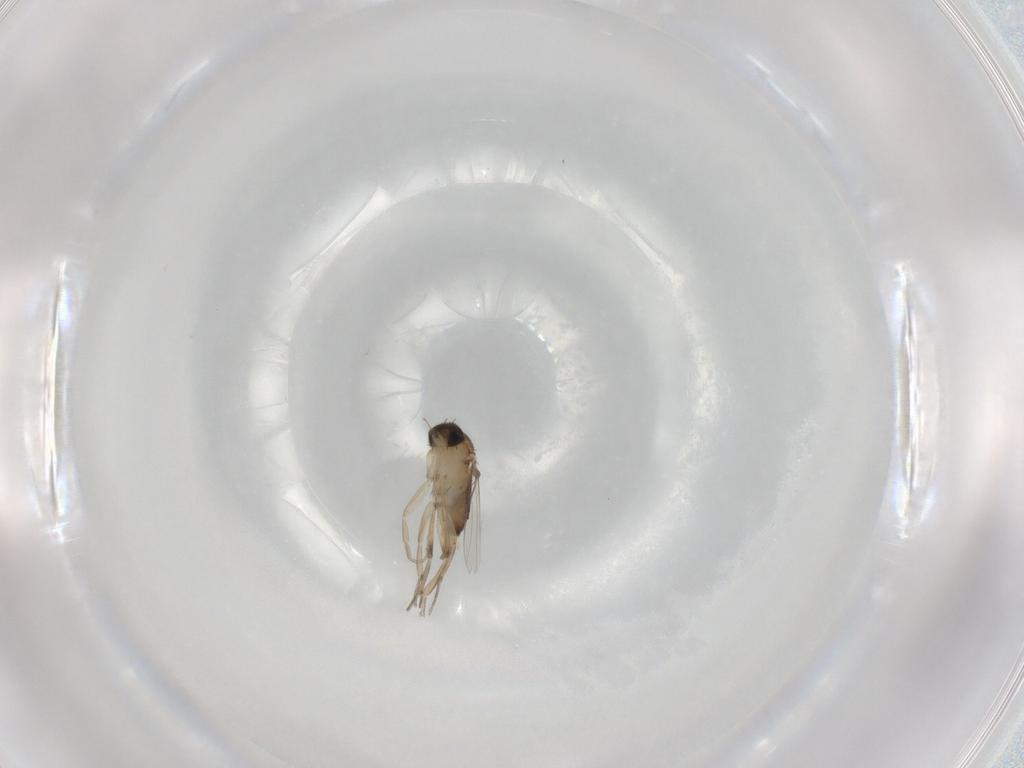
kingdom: Animalia
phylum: Arthropoda
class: Insecta
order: Diptera
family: Phoridae
